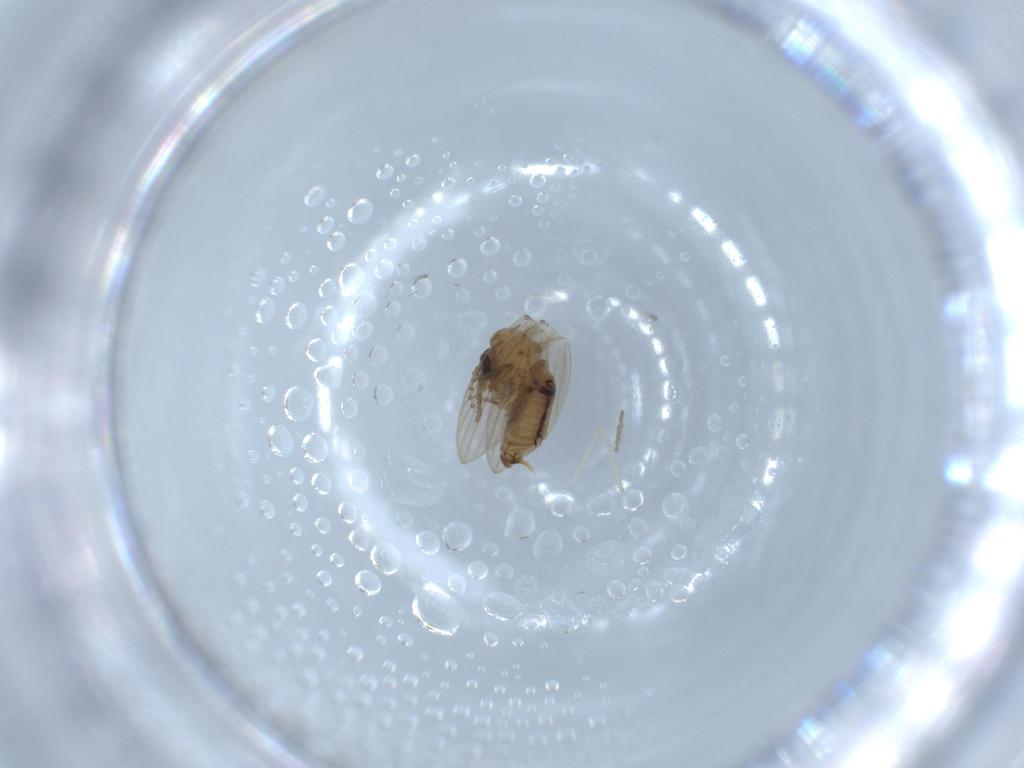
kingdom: Animalia
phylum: Arthropoda
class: Insecta
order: Diptera
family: Psychodidae
